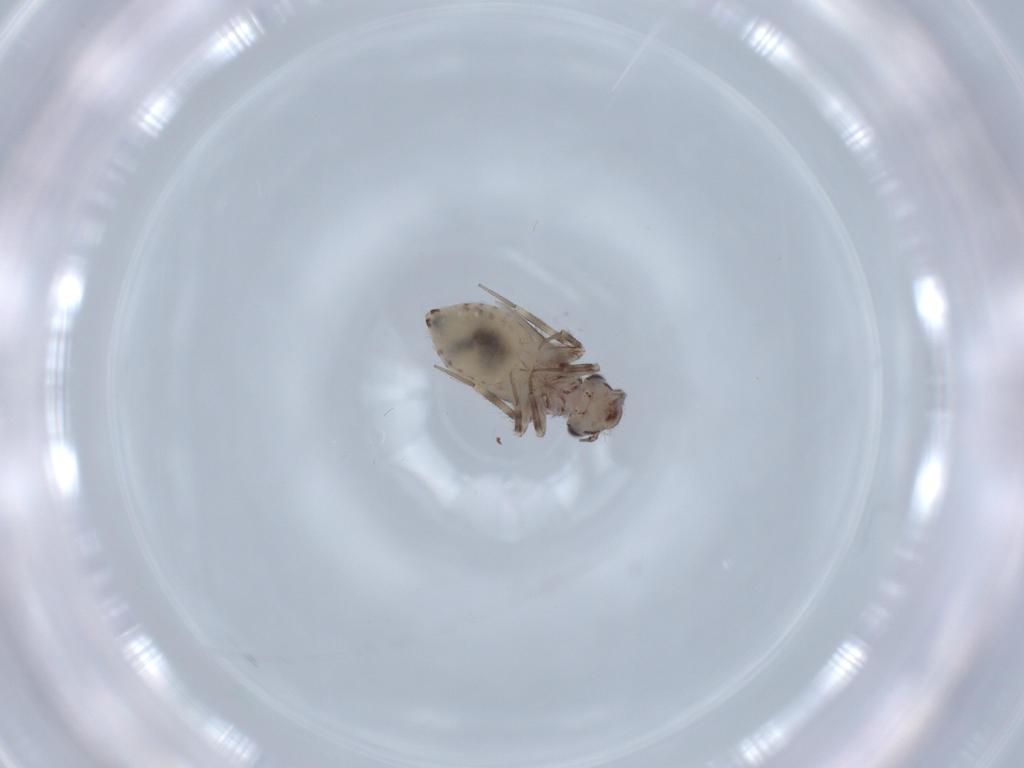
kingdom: Animalia
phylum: Arthropoda
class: Insecta
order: Psocodea
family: Lepidopsocidae
